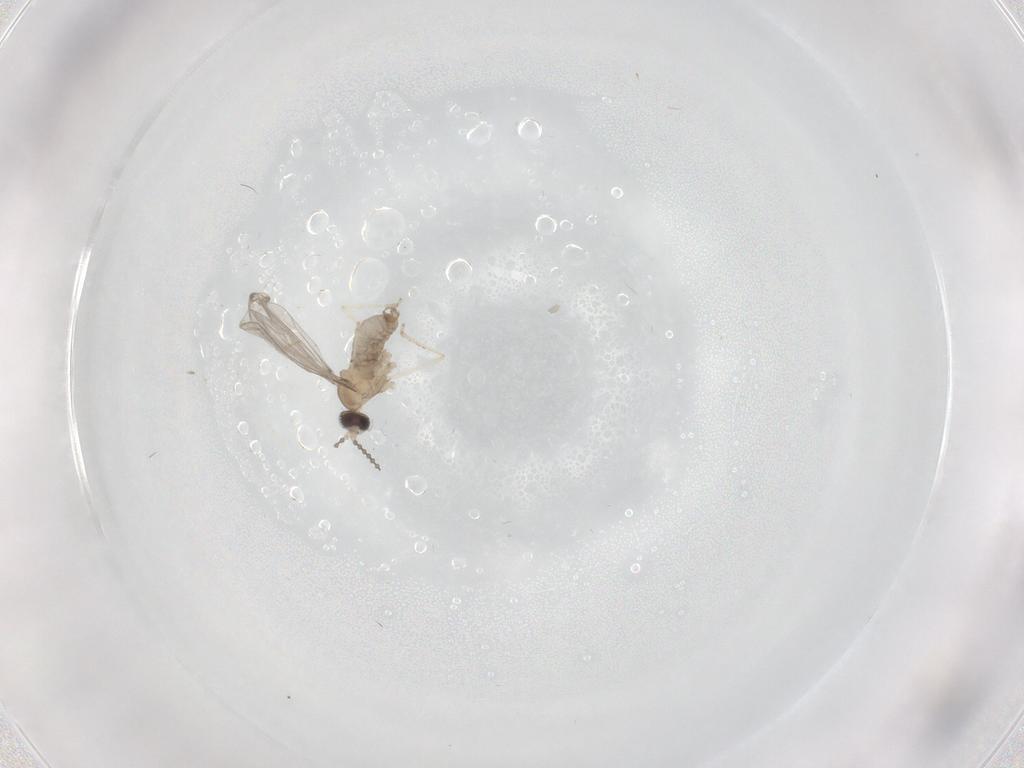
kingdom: Animalia
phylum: Arthropoda
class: Insecta
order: Diptera
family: Cecidomyiidae
